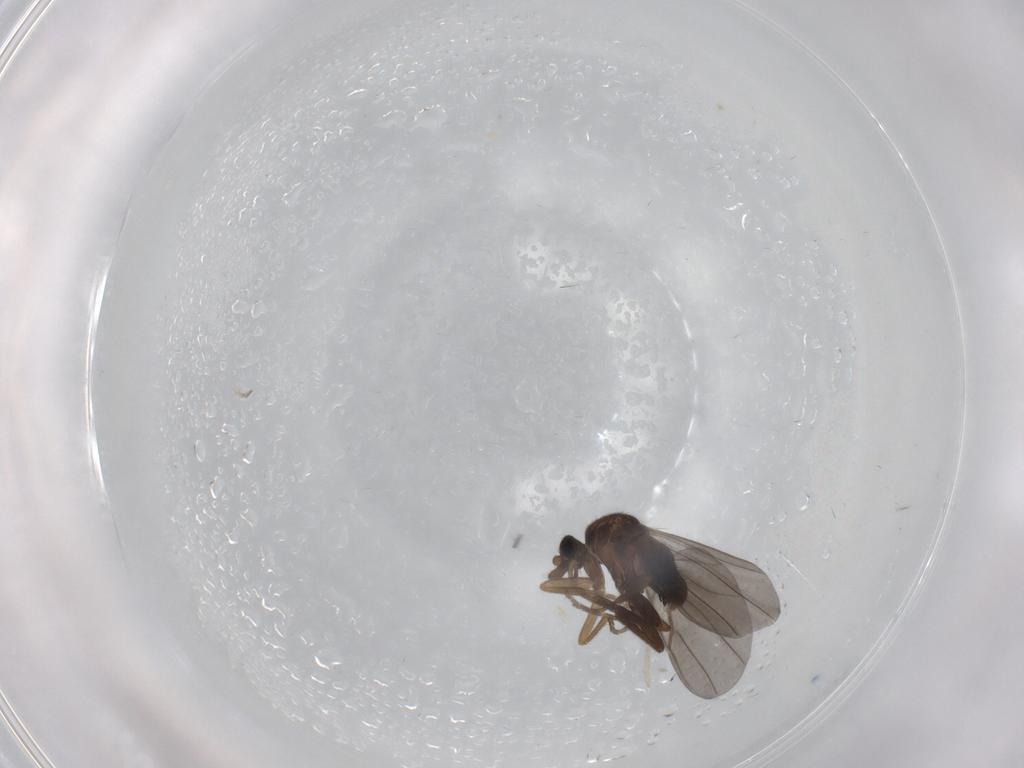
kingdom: Animalia
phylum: Arthropoda
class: Insecta
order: Diptera
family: Phoridae
